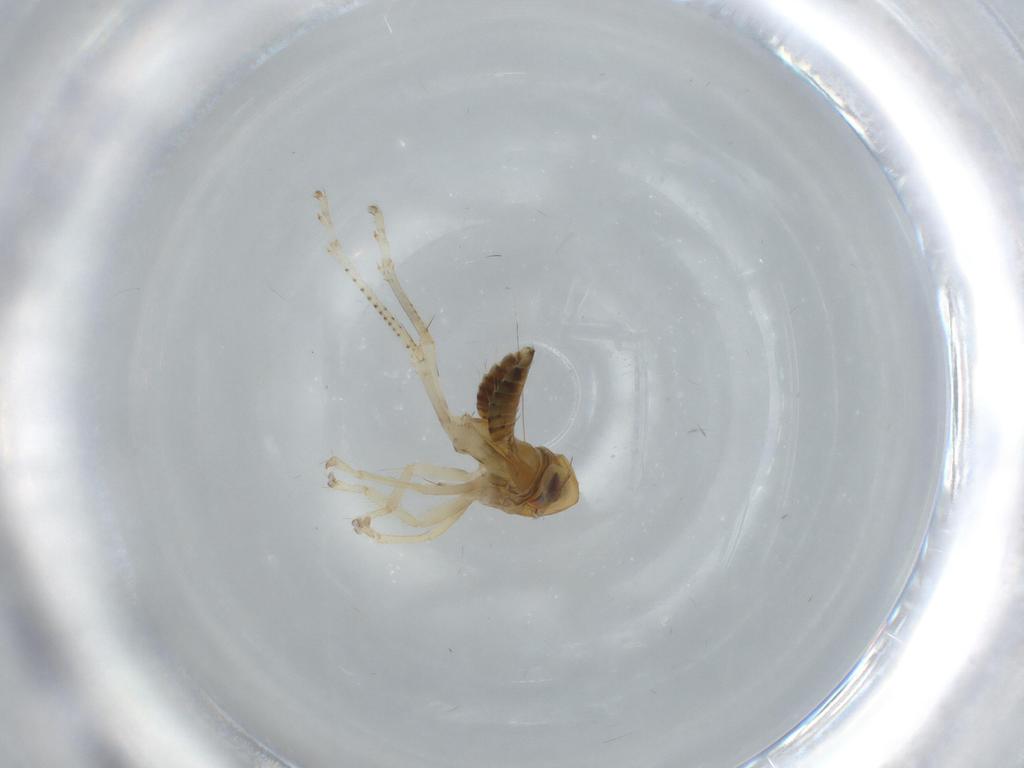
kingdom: Animalia
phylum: Arthropoda
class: Insecta
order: Hemiptera
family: Cicadellidae
